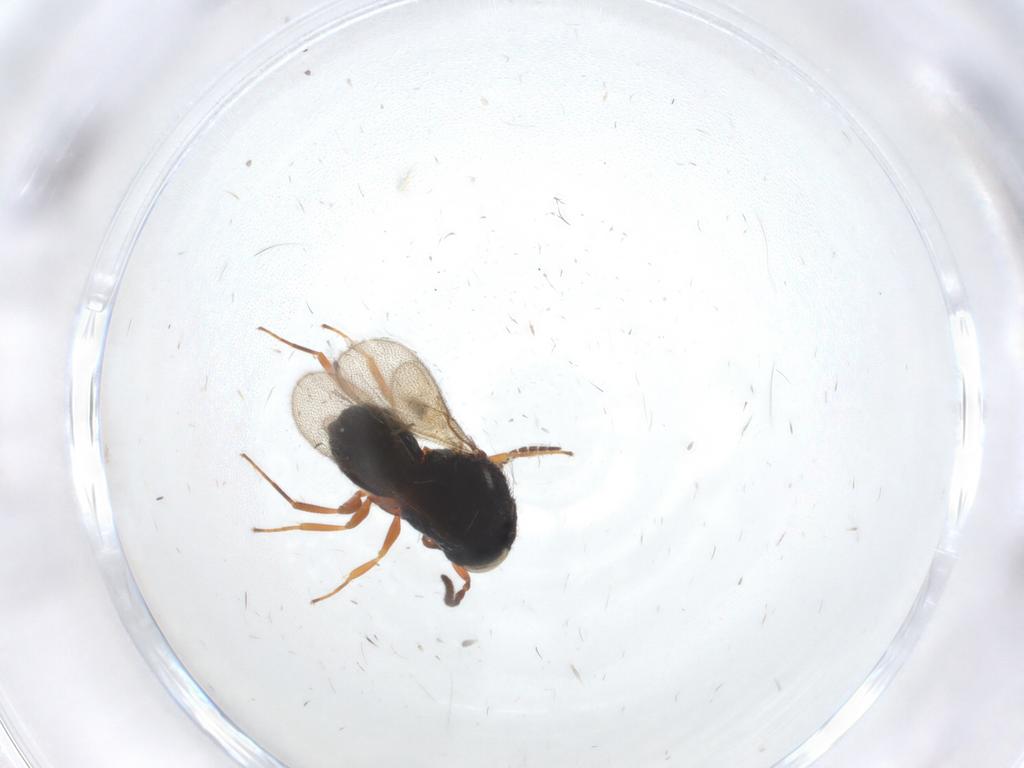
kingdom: Animalia
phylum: Arthropoda
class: Insecta
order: Hymenoptera
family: Scelionidae
